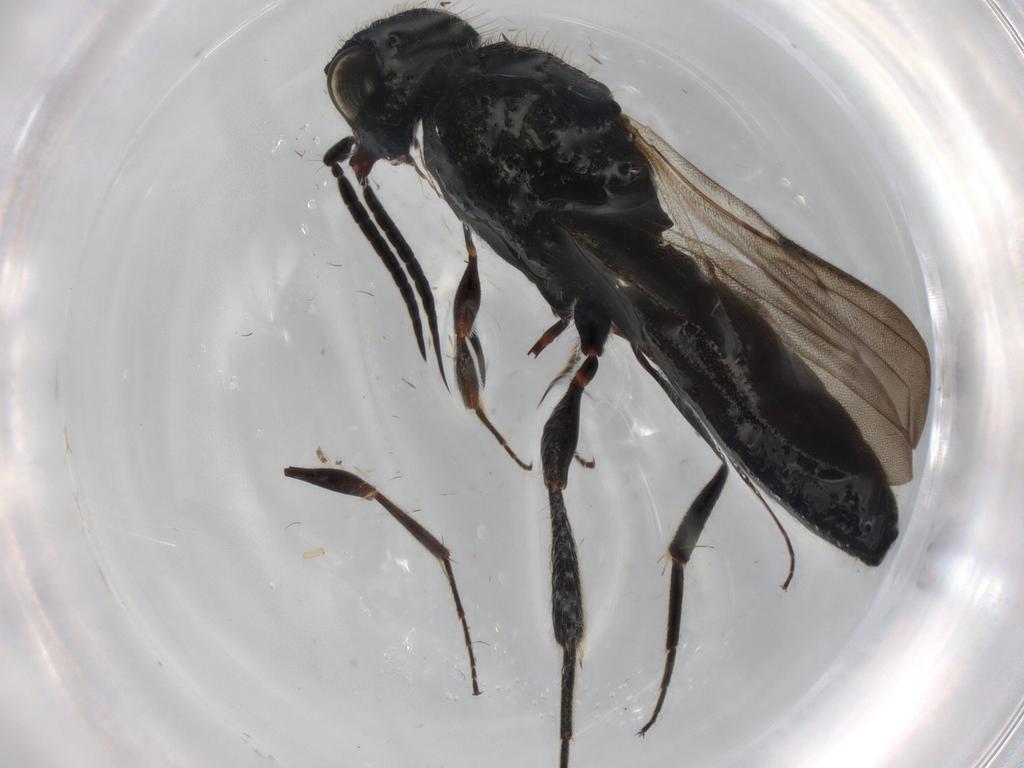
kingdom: Animalia
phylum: Arthropoda
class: Insecta
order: Hymenoptera
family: Scelionidae
